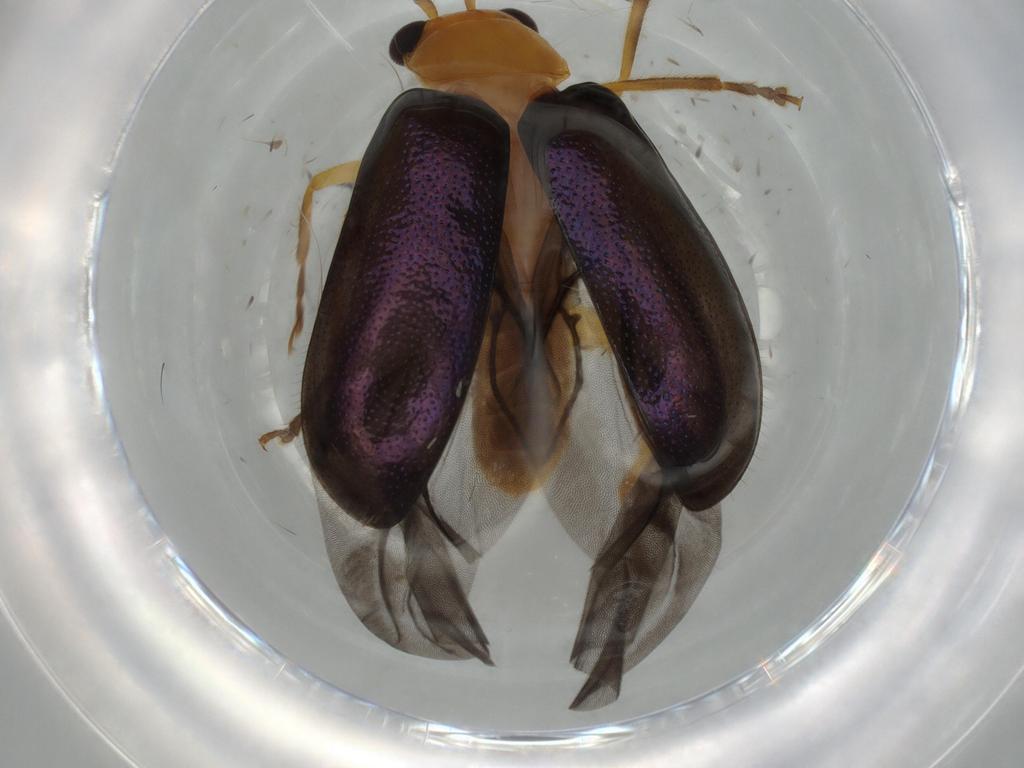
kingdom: Animalia
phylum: Arthropoda
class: Insecta
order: Coleoptera
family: Chrysomelidae
